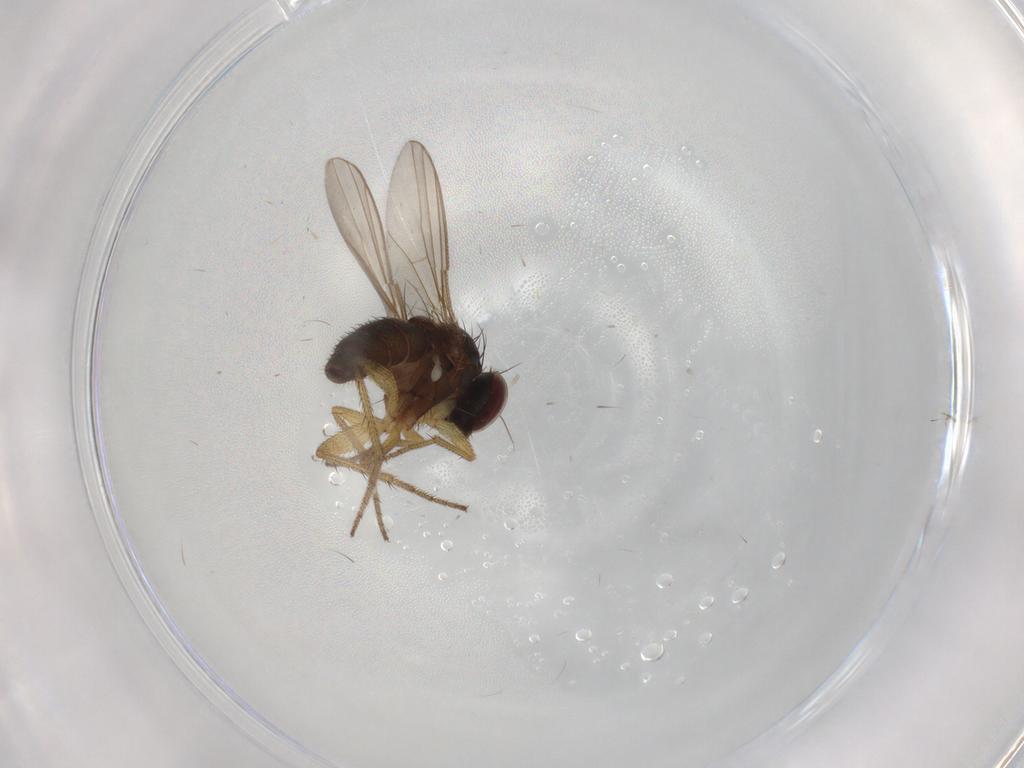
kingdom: Animalia
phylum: Arthropoda
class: Insecta
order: Diptera
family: Dolichopodidae
